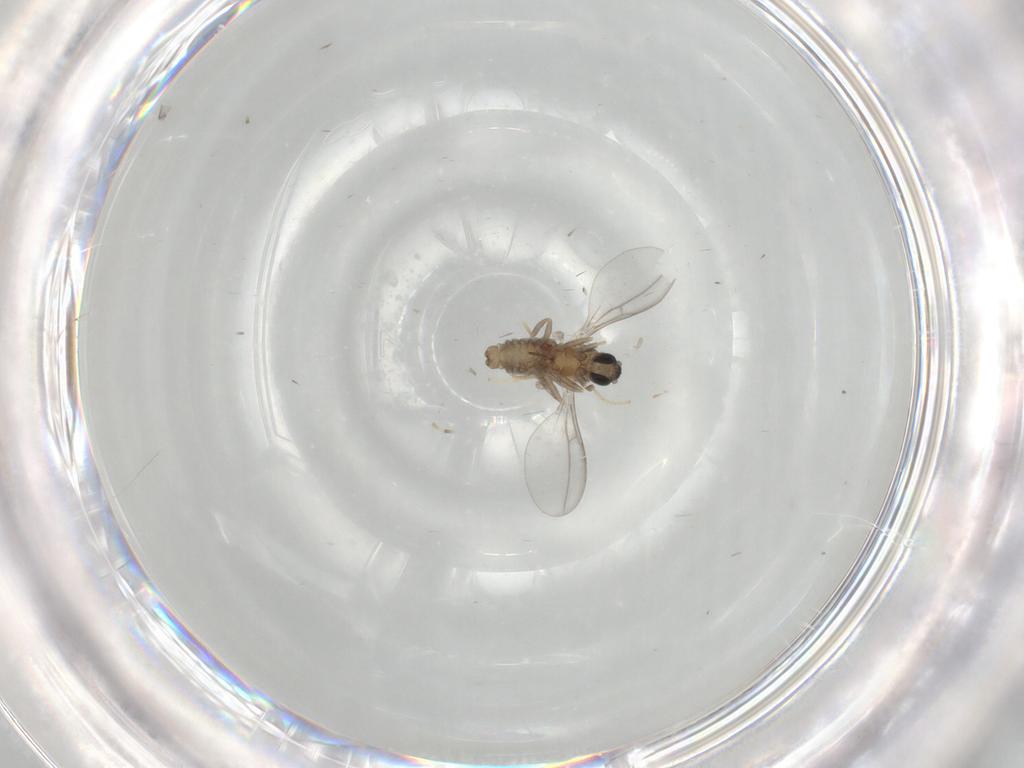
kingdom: Animalia
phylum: Arthropoda
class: Insecta
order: Diptera
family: Cecidomyiidae
